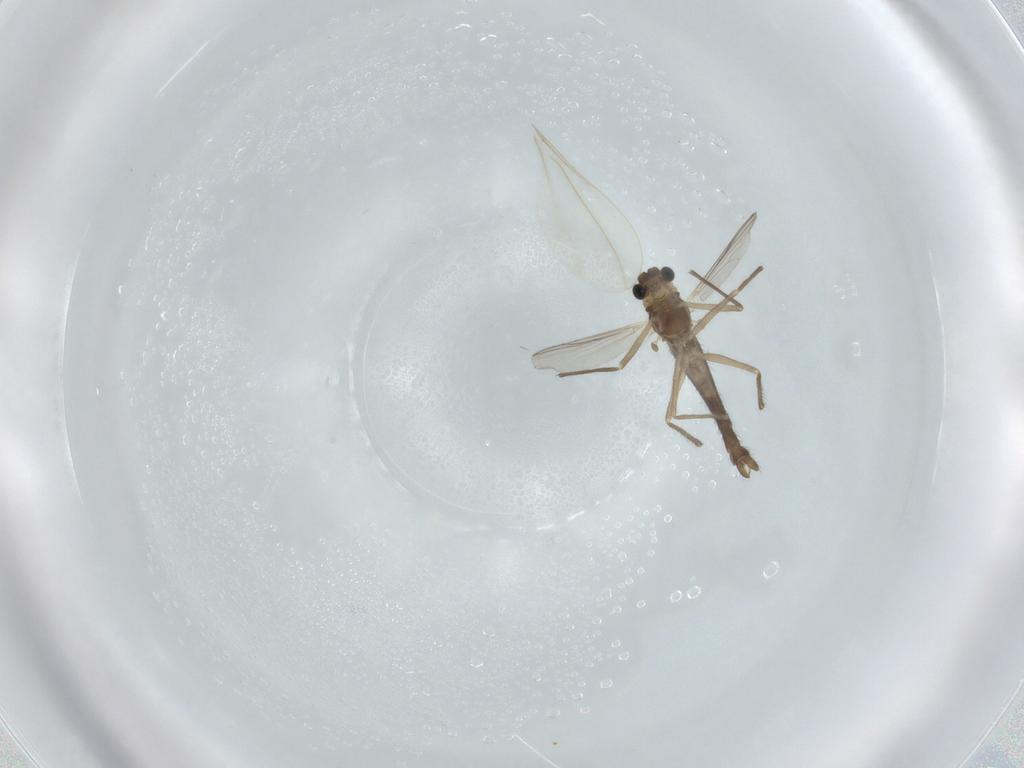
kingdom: Animalia
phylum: Arthropoda
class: Insecta
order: Diptera
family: Chironomidae
